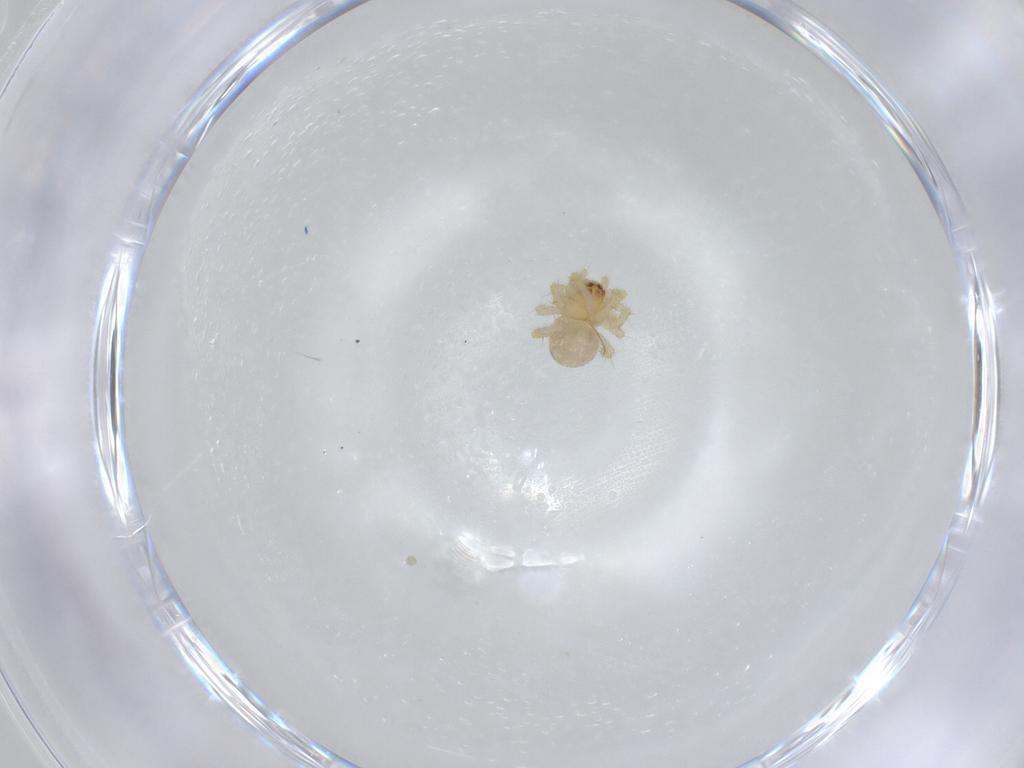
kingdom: Animalia
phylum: Arthropoda
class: Arachnida
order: Araneae
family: Theridiidae
